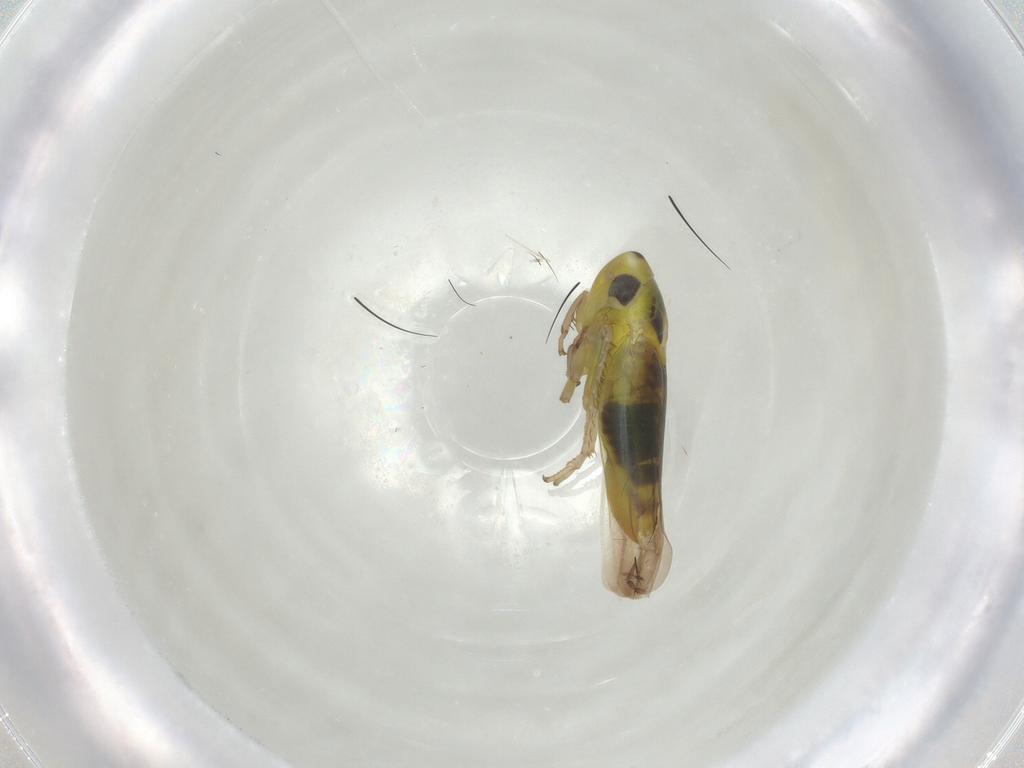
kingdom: Animalia
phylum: Arthropoda
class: Insecta
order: Hemiptera
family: Cicadellidae
